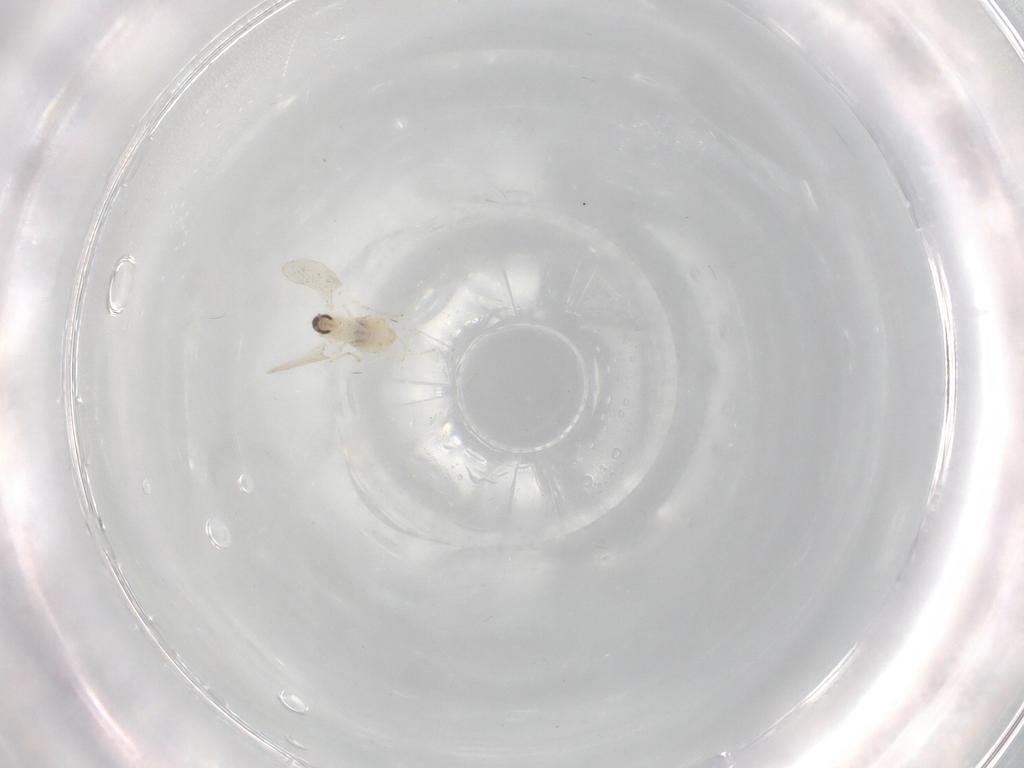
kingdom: Animalia
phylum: Arthropoda
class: Insecta
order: Diptera
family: Cecidomyiidae
